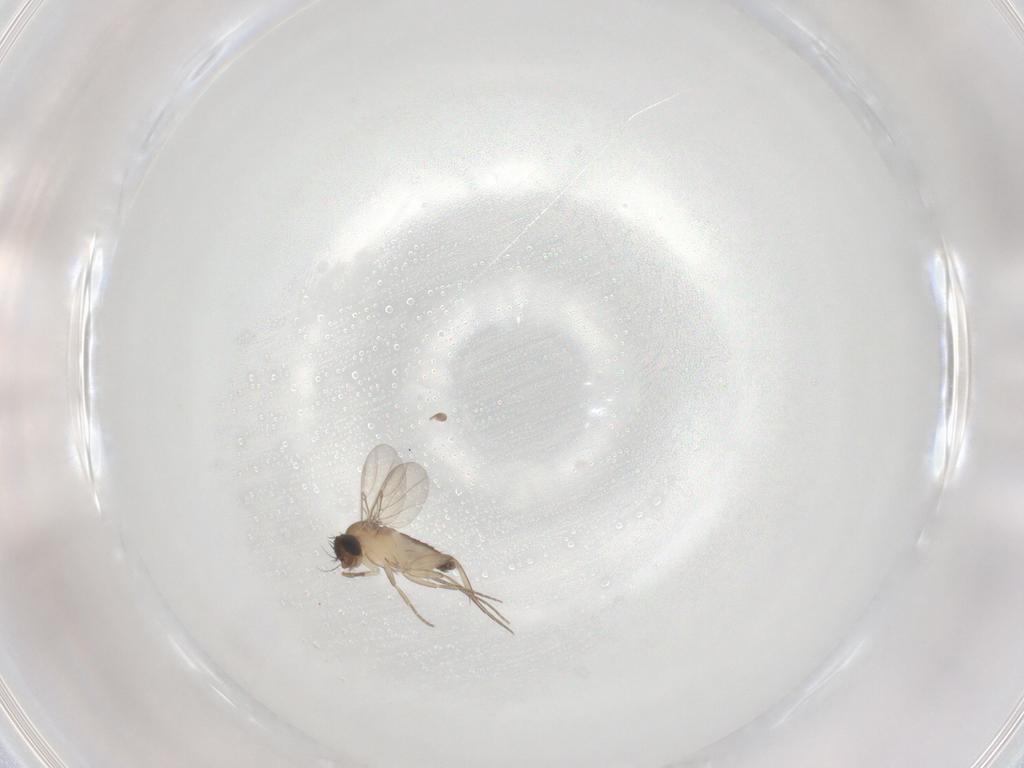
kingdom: Animalia
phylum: Arthropoda
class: Insecta
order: Diptera
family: Phoridae
